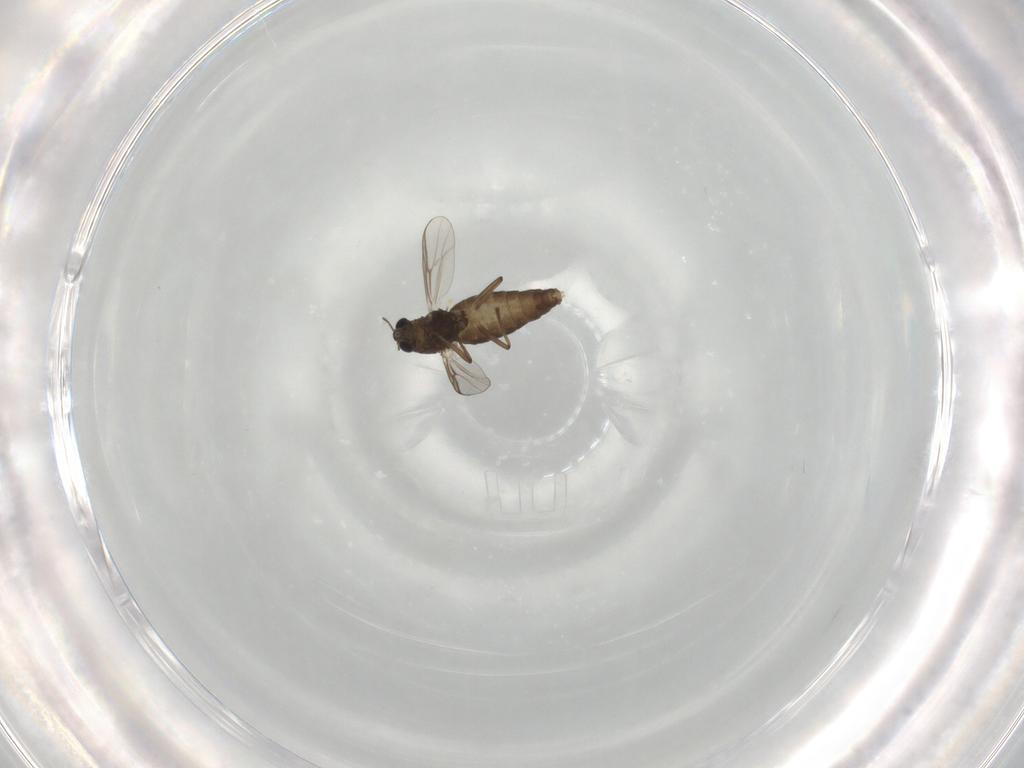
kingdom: Animalia
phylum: Arthropoda
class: Insecta
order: Diptera
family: Chironomidae
